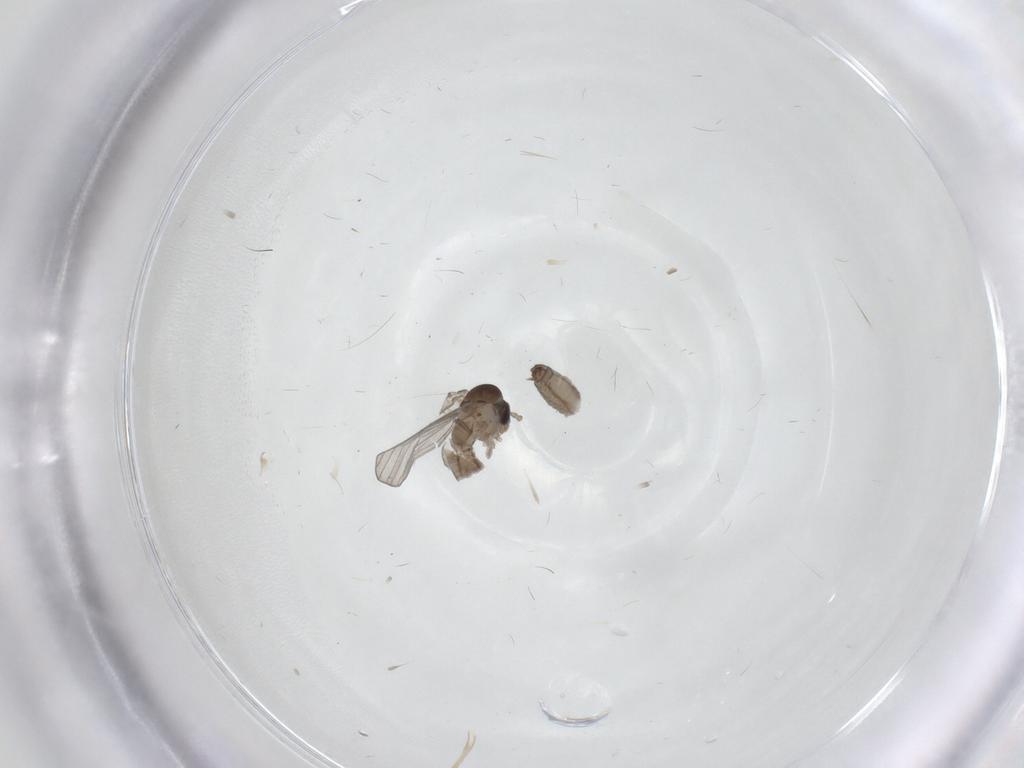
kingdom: Animalia
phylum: Arthropoda
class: Insecta
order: Diptera
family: Psychodidae
